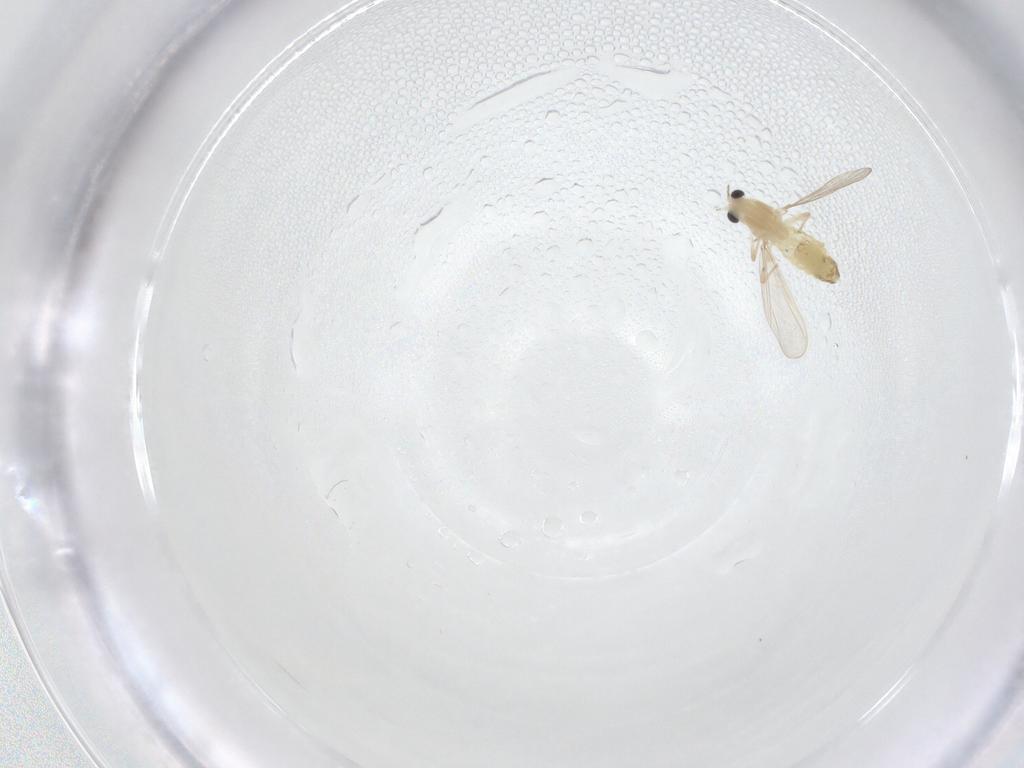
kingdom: Animalia
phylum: Arthropoda
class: Insecta
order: Diptera
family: Chironomidae
